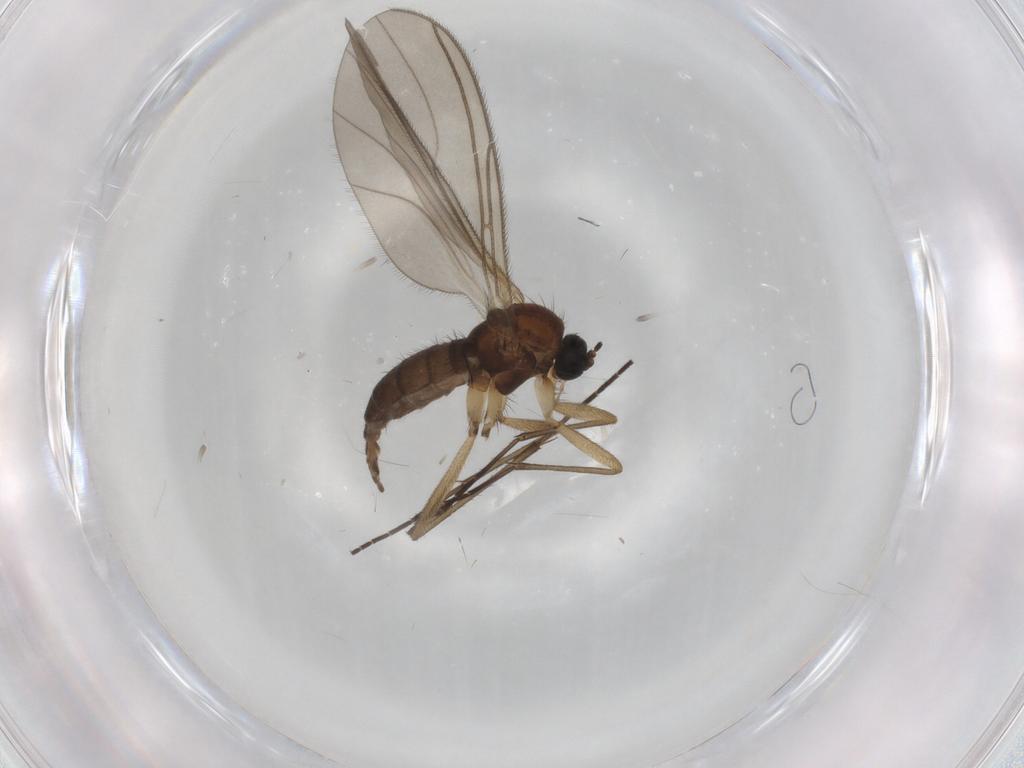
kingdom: Animalia
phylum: Arthropoda
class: Insecta
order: Diptera
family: Sciaridae
